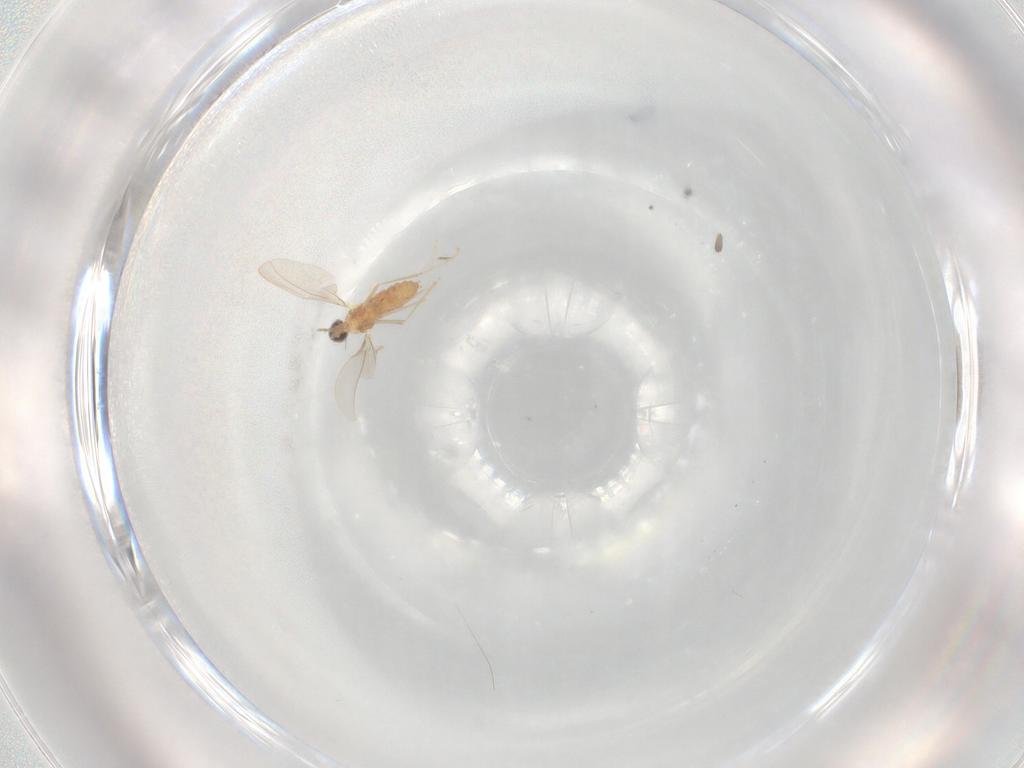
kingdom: Animalia
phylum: Arthropoda
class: Insecta
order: Diptera
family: Cecidomyiidae
